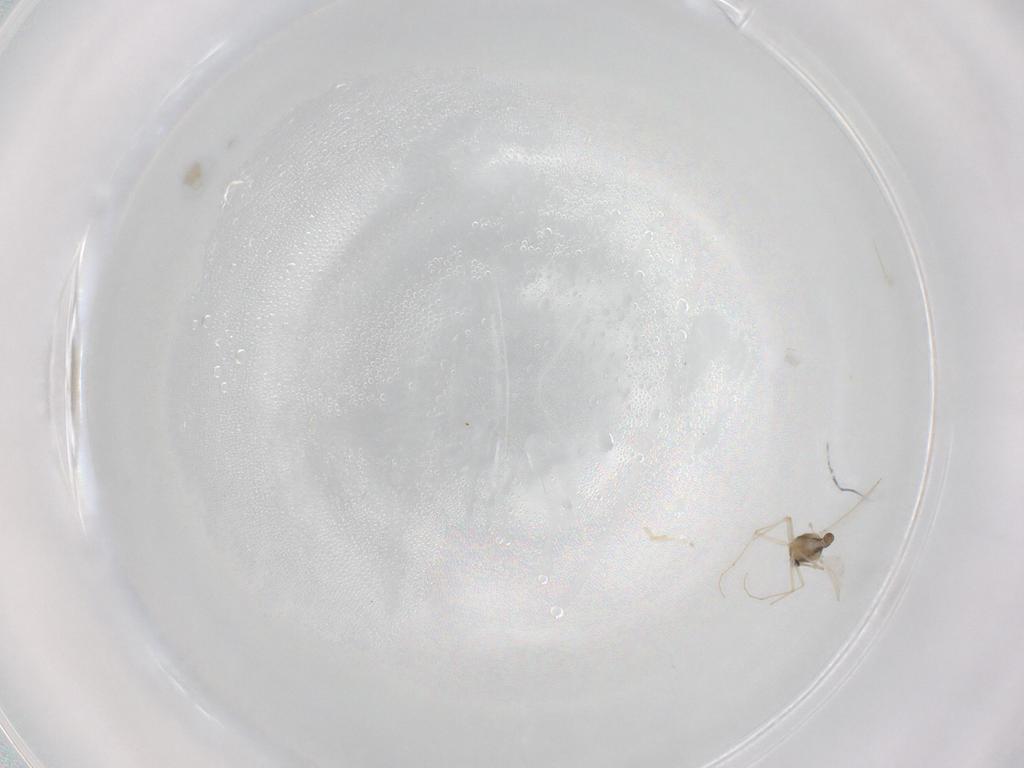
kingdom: Animalia
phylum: Arthropoda
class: Insecta
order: Diptera
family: Chironomidae
